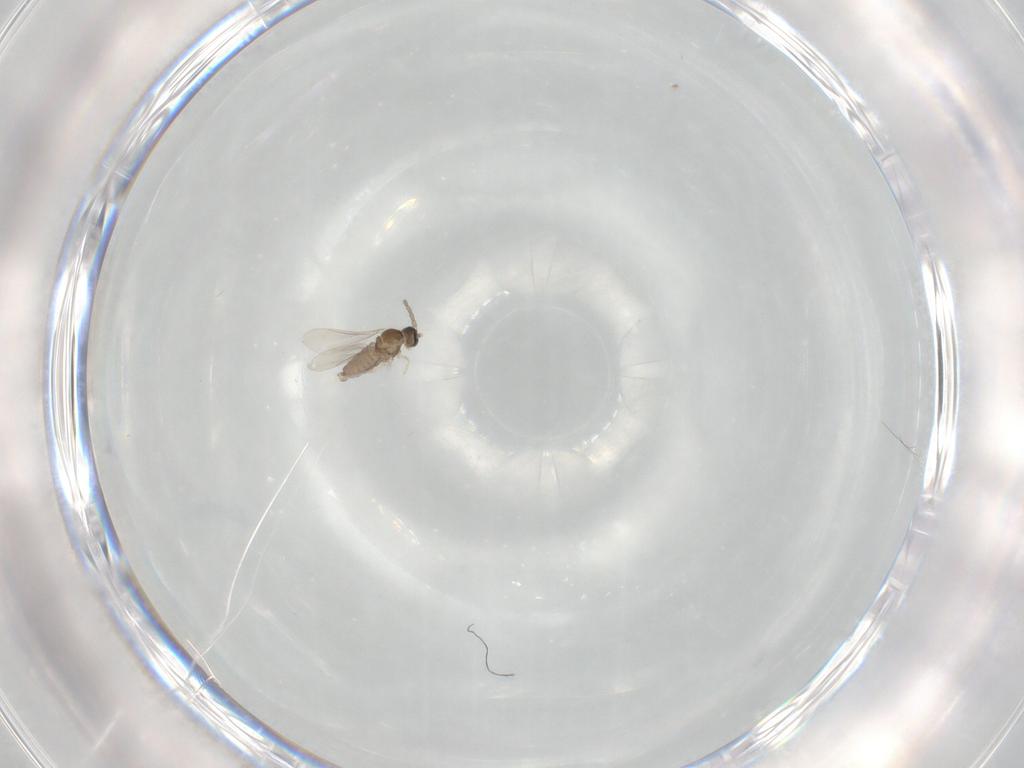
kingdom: Animalia
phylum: Arthropoda
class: Insecta
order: Diptera
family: Cecidomyiidae
